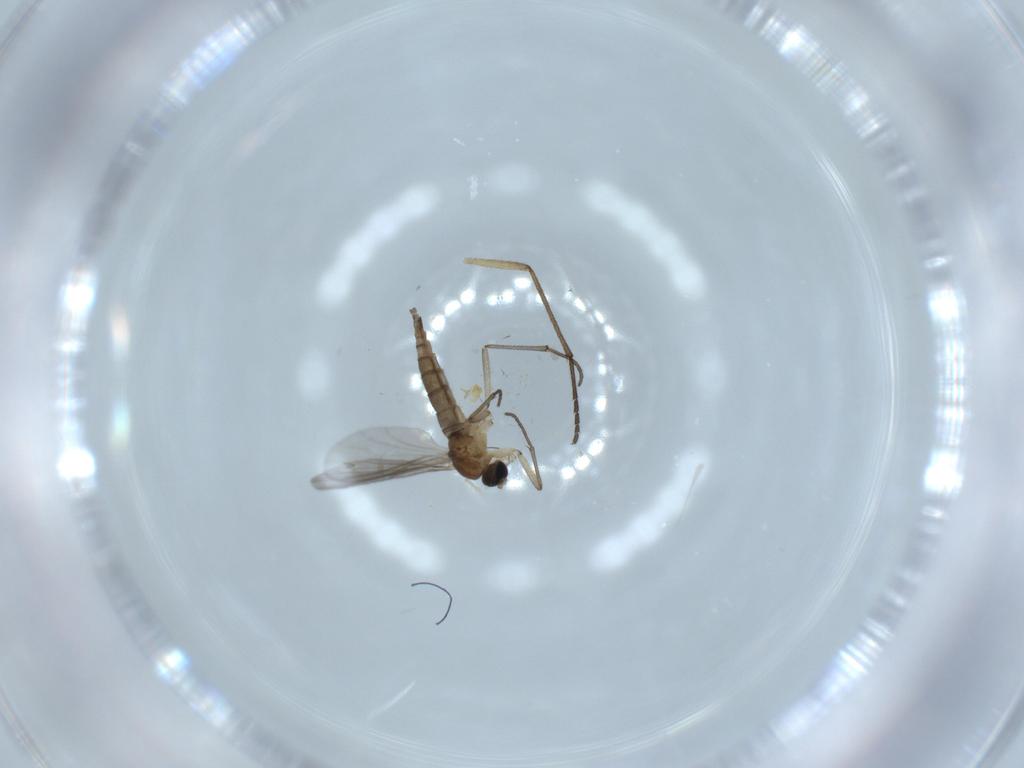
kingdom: Animalia
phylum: Arthropoda
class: Insecta
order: Diptera
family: Sciaridae
